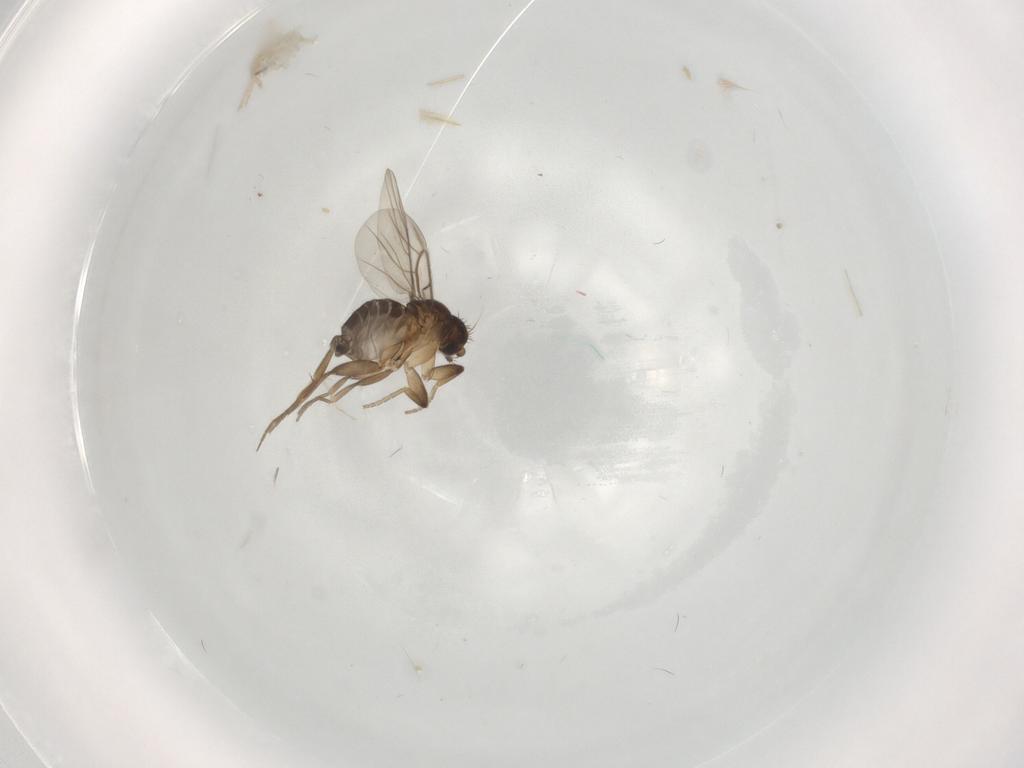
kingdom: Animalia
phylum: Arthropoda
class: Insecta
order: Diptera
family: Phoridae
